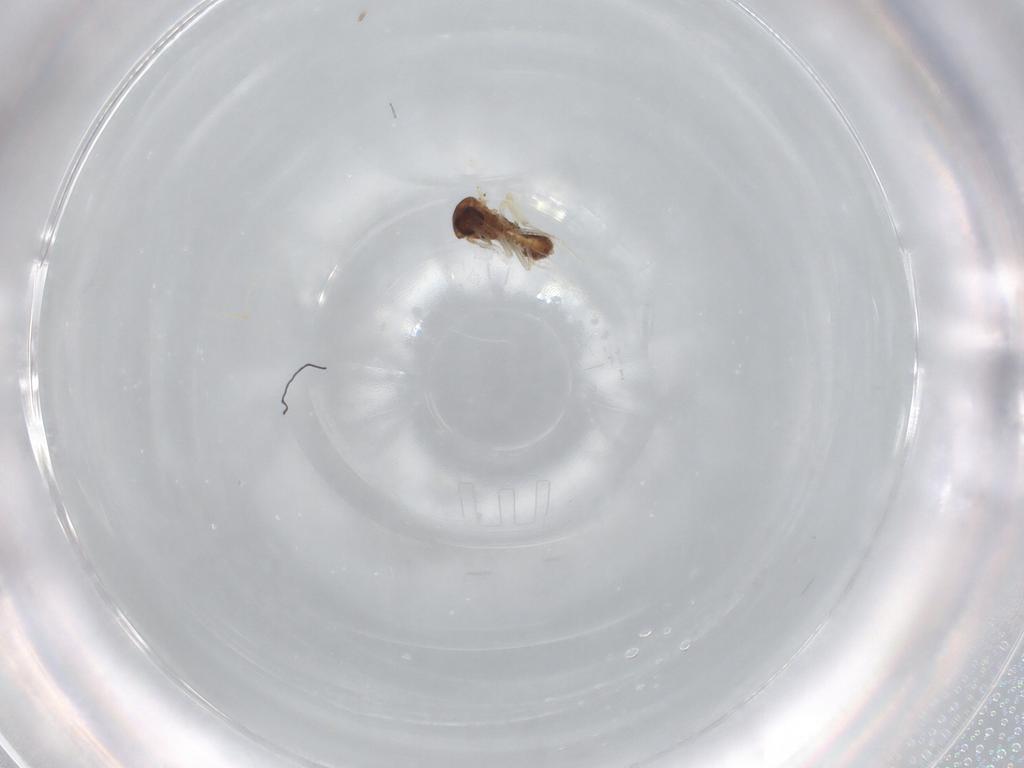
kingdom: Animalia
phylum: Arthropoda
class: Insecta
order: Diptera
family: Ceratopogonidae
